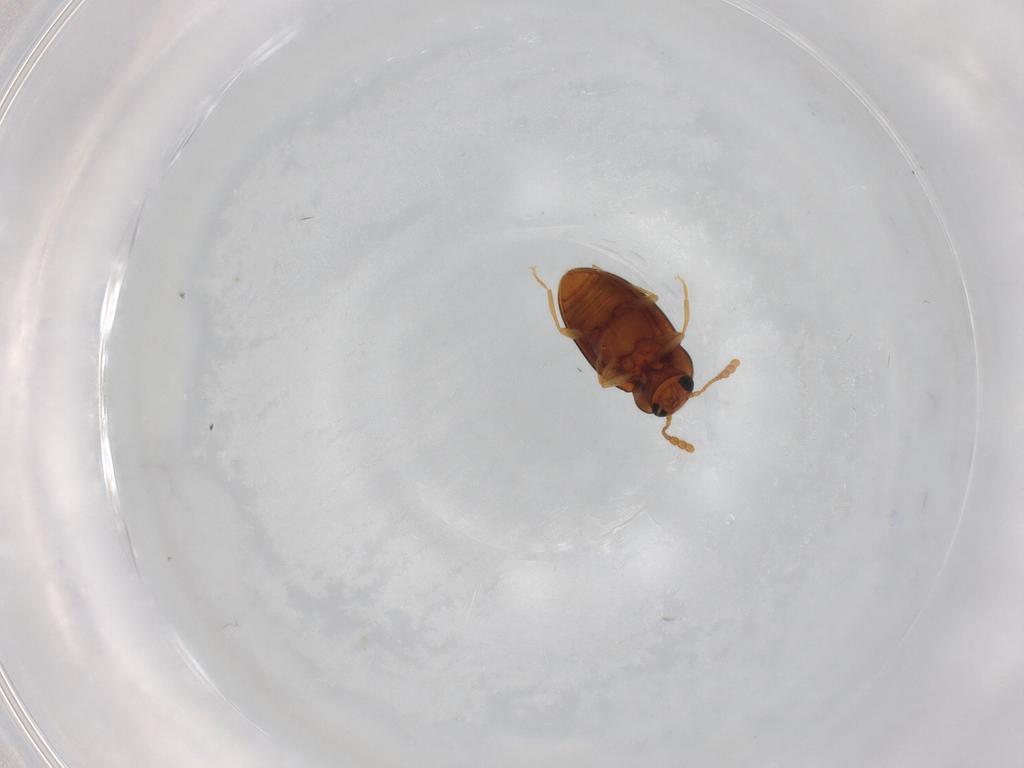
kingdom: Animalia
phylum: Arthropoda
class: Insecta
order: Coleoptera
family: Erotylidae
